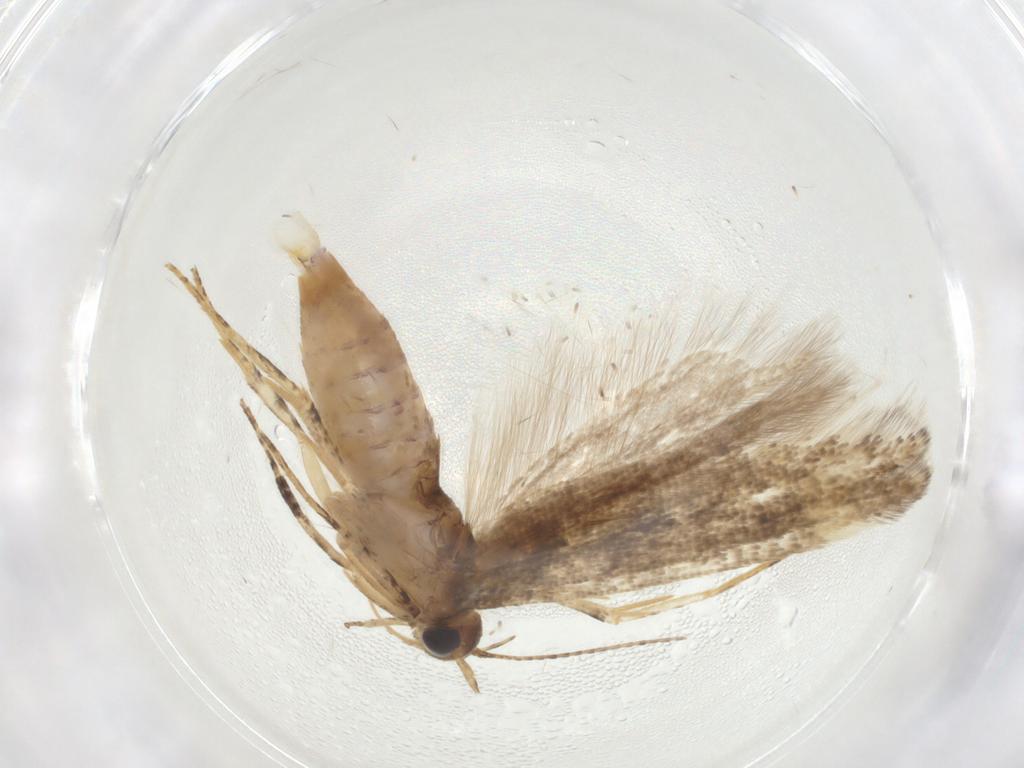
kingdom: Animalia
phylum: Arthropoda
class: Insecta
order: Lepidoptera
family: Gelechiidae
